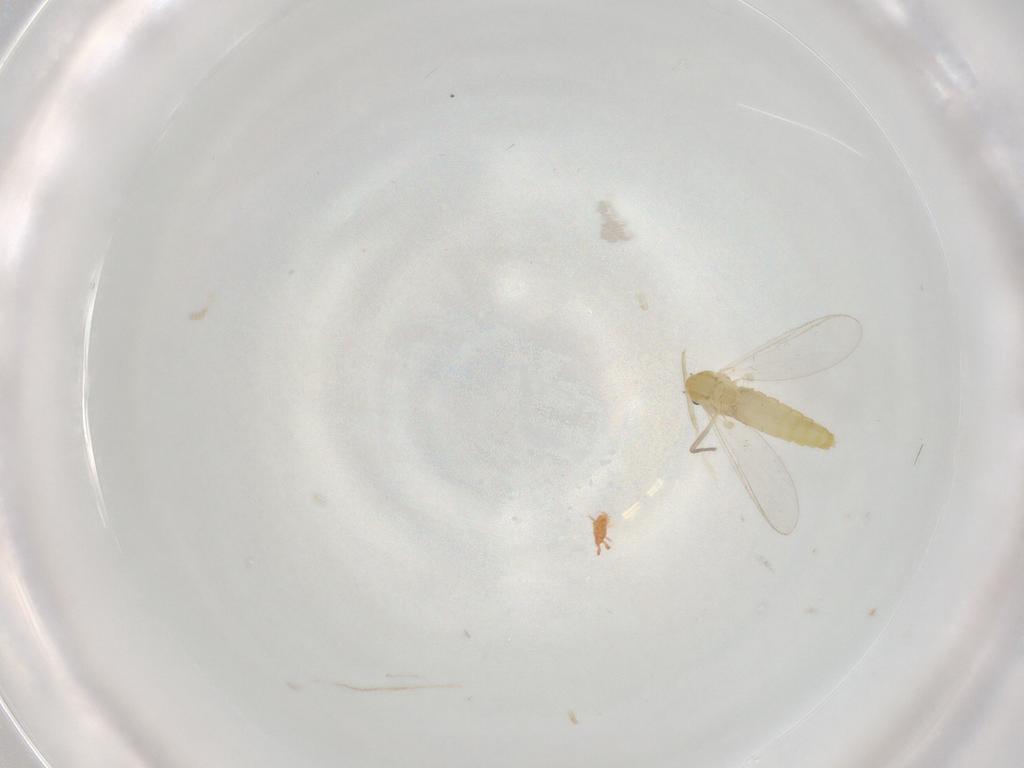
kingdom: Animalia
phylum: Arthropoda
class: Insecta
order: Diptera
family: Chironomidae
